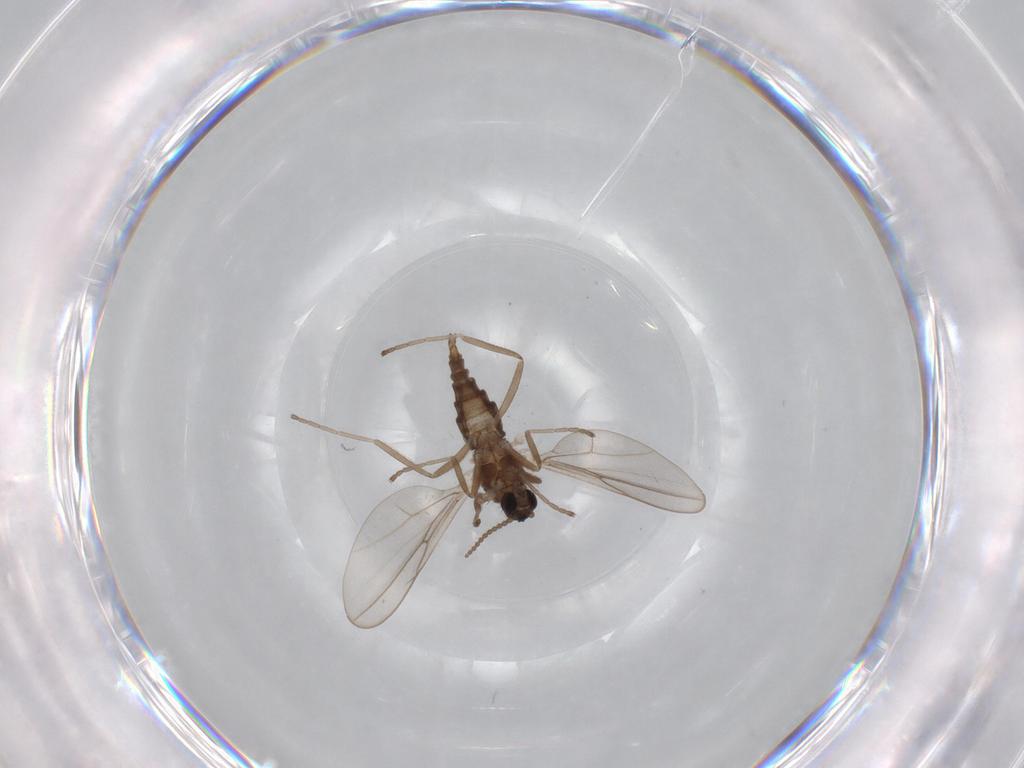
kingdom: Animalia
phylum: Arthropoda
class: Insecta
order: Diptera
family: Cecidomyiidae
